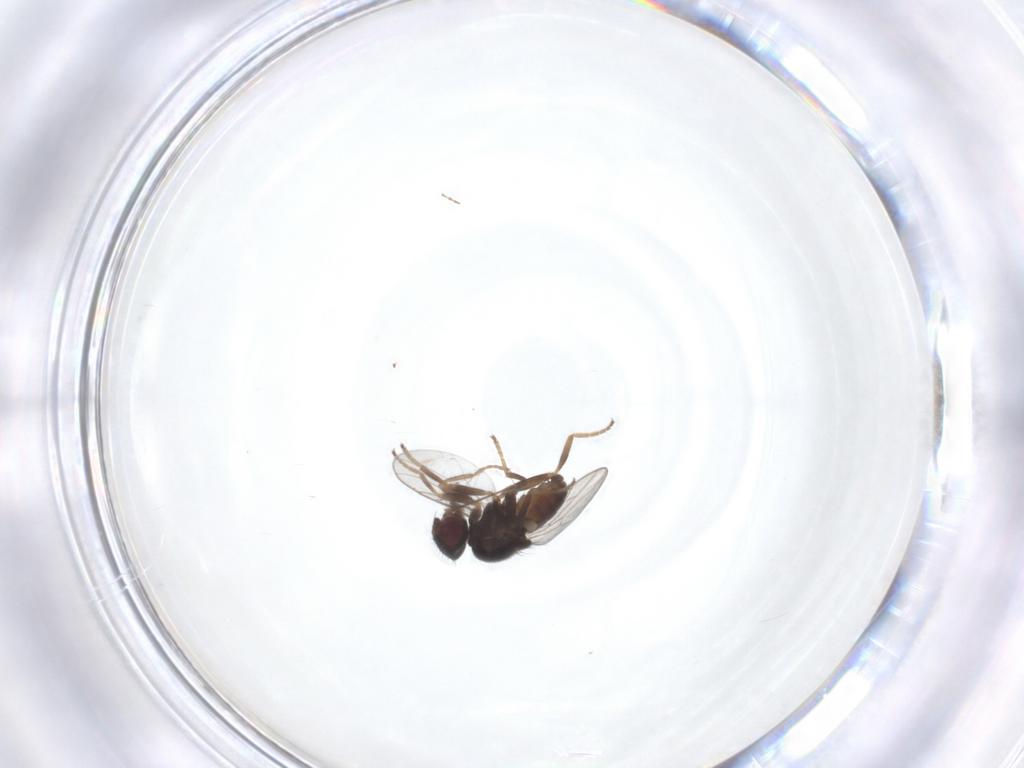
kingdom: Animalia
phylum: Arthropoda
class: Insecta
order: Diptera
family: Chloropidae
